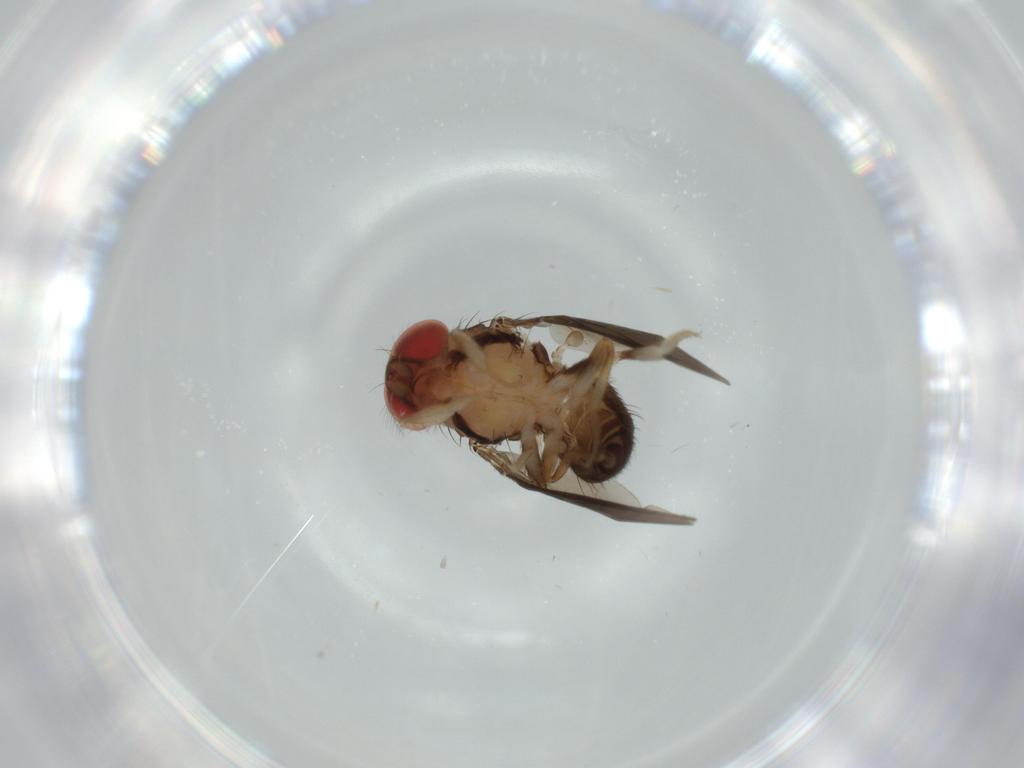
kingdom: Animalia
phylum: Arthropoda
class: Insecta
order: Diptera
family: Drosophilidae
